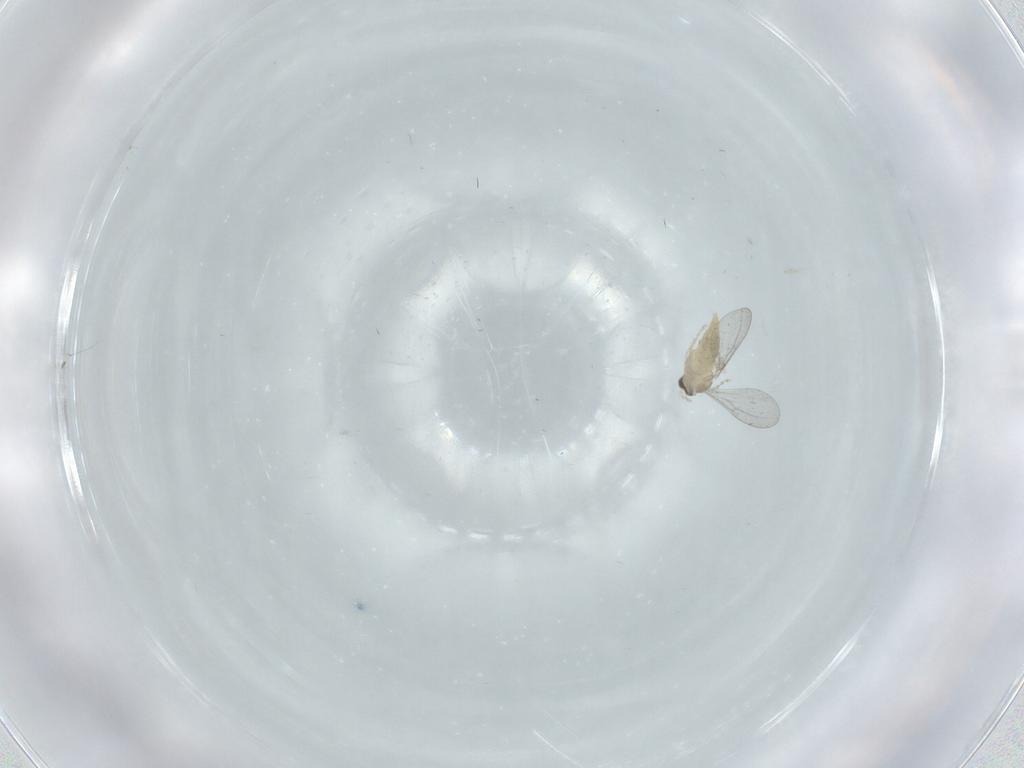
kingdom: Animalia
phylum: Arthropoda
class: Insecta
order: Diptera
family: Cecidomyiidae
